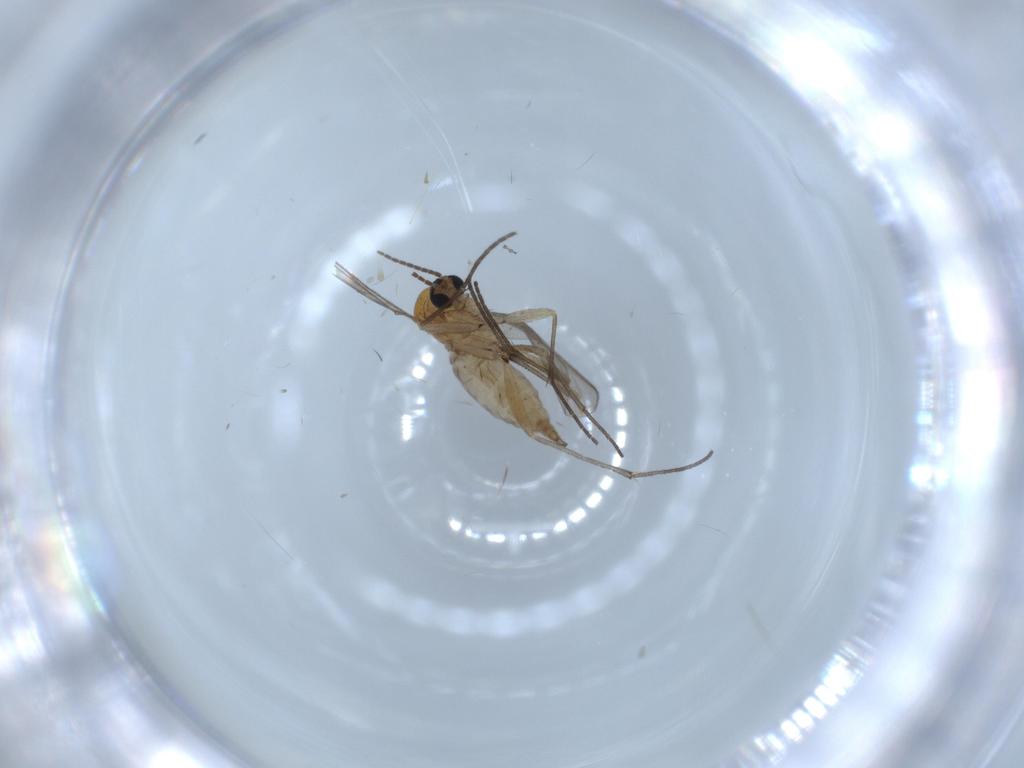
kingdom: Animalia
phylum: Arthropoda
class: Insecta
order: Diptera
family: Sciaridae
